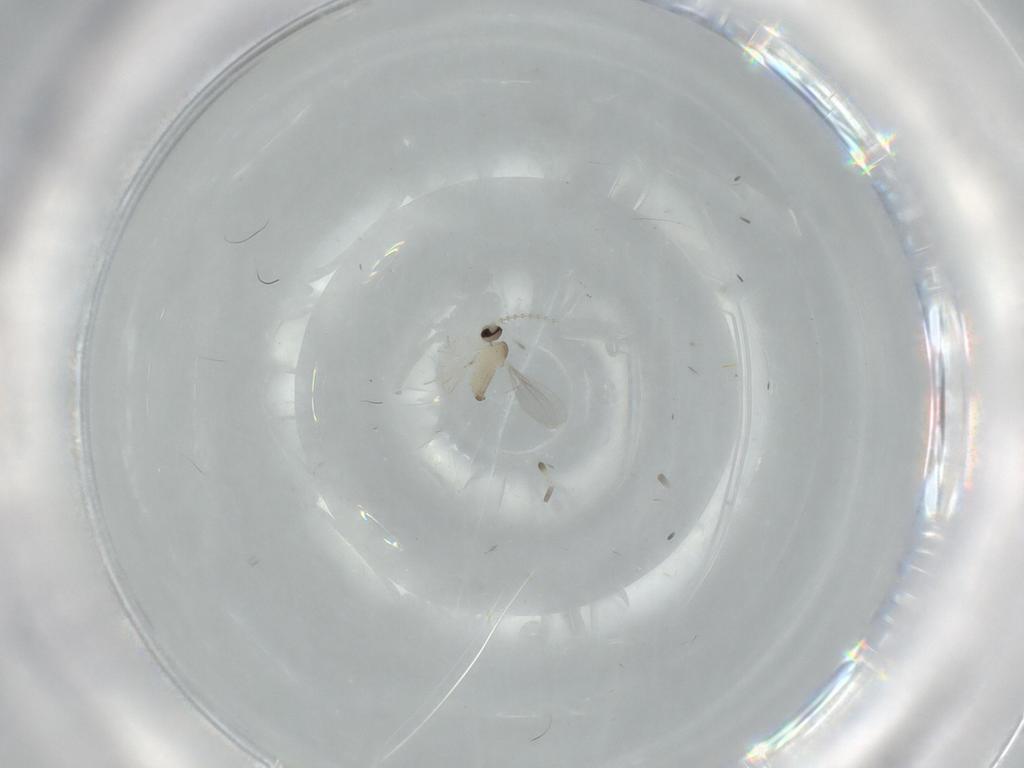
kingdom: Animalia
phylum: Arthropoda
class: Insecta
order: Diptera
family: Cecidomyiidae
